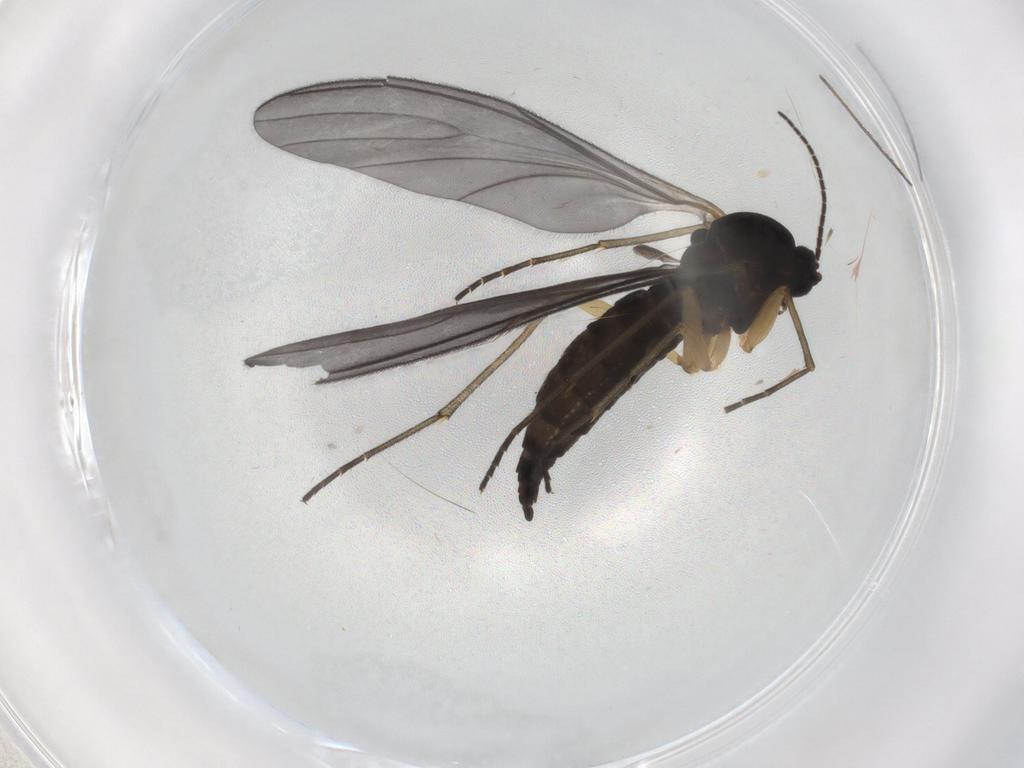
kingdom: Animalia
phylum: Arthropoda
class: Insecta
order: Diptera
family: Sciaridae
